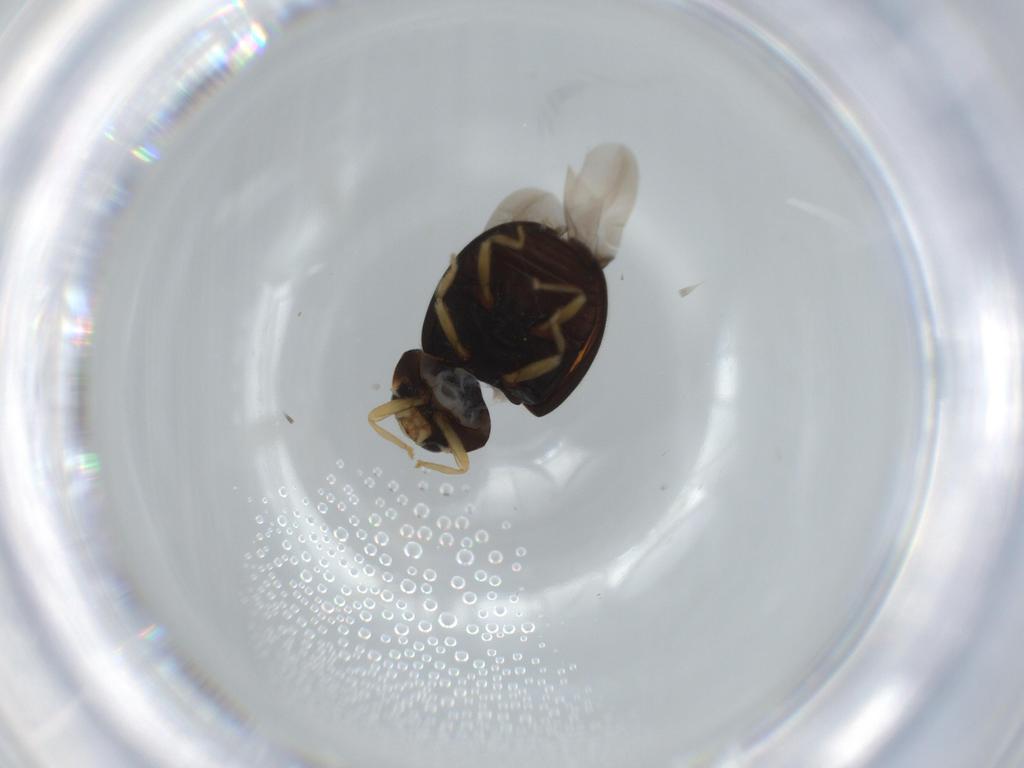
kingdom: Animalia
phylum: Arthropoda
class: Insecta
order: Coleoptera
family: Coccinellidae
